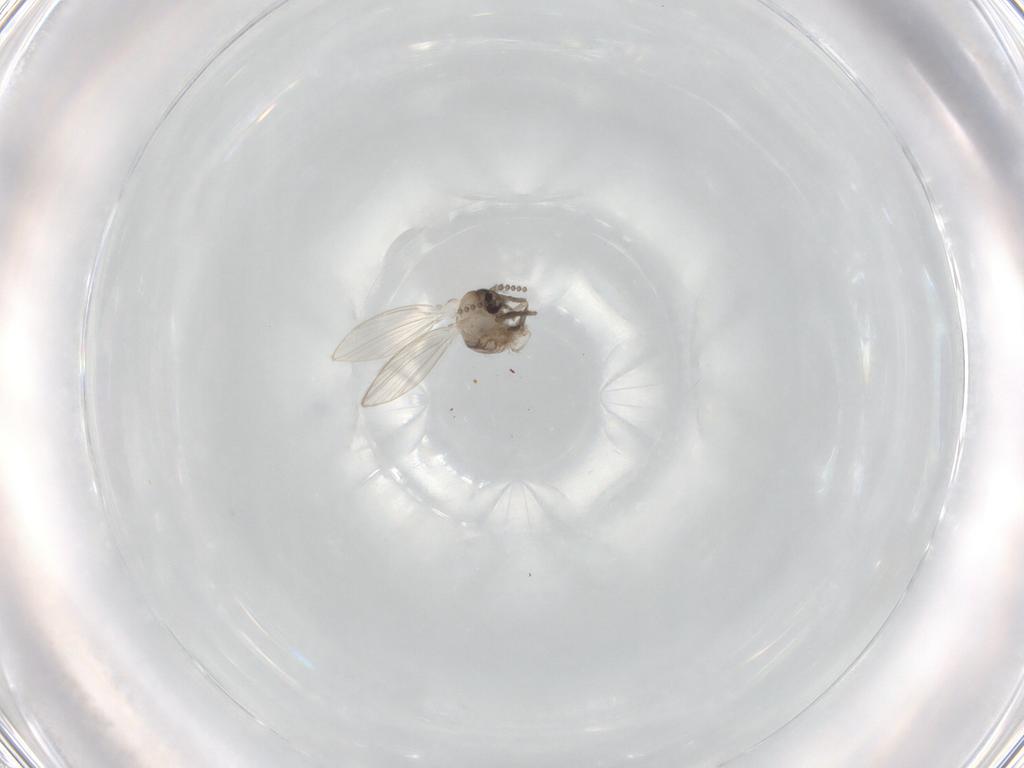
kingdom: Animalia
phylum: Arthropoda
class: Insecta
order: Diptera
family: Psychodidae
